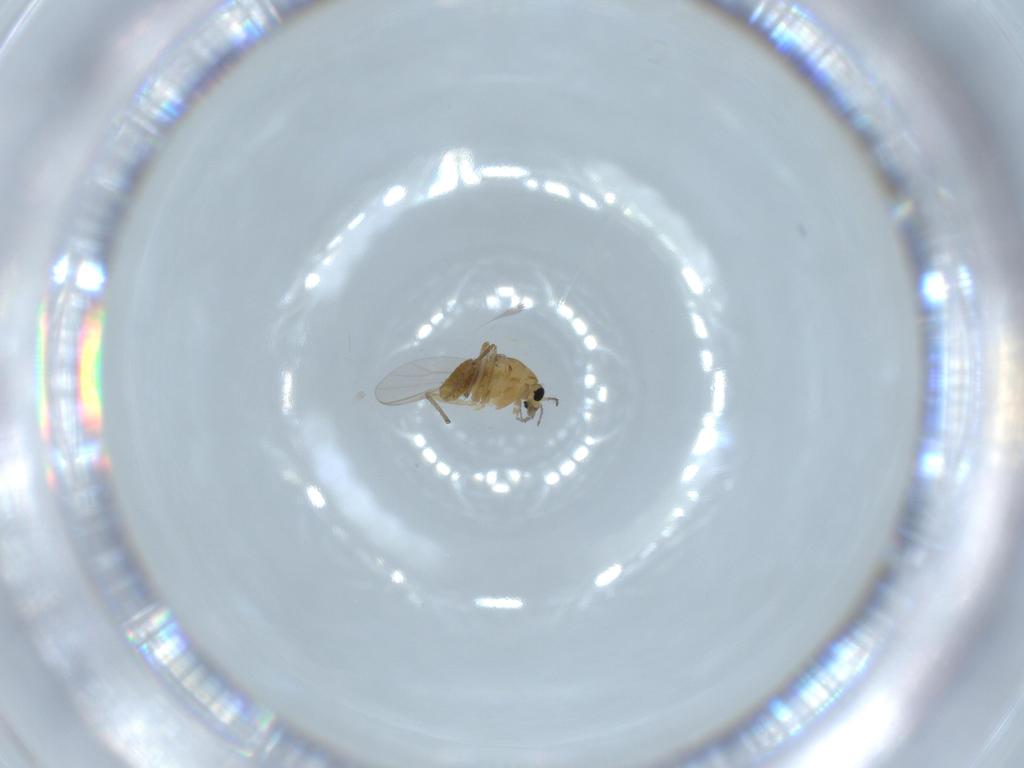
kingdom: Animalia
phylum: Arthropoda
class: Insecta
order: Diptera
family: Chironomidae
